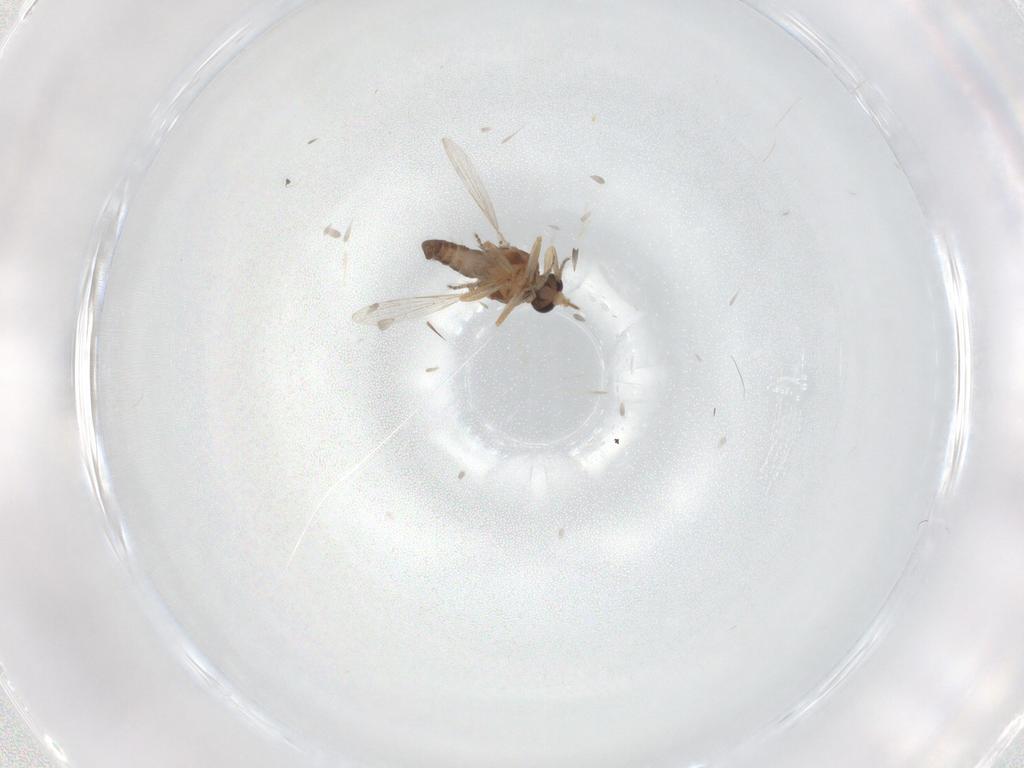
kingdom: Animalia
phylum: Arthropoda
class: Insecta
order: Diptera
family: Ceratopogonidae
